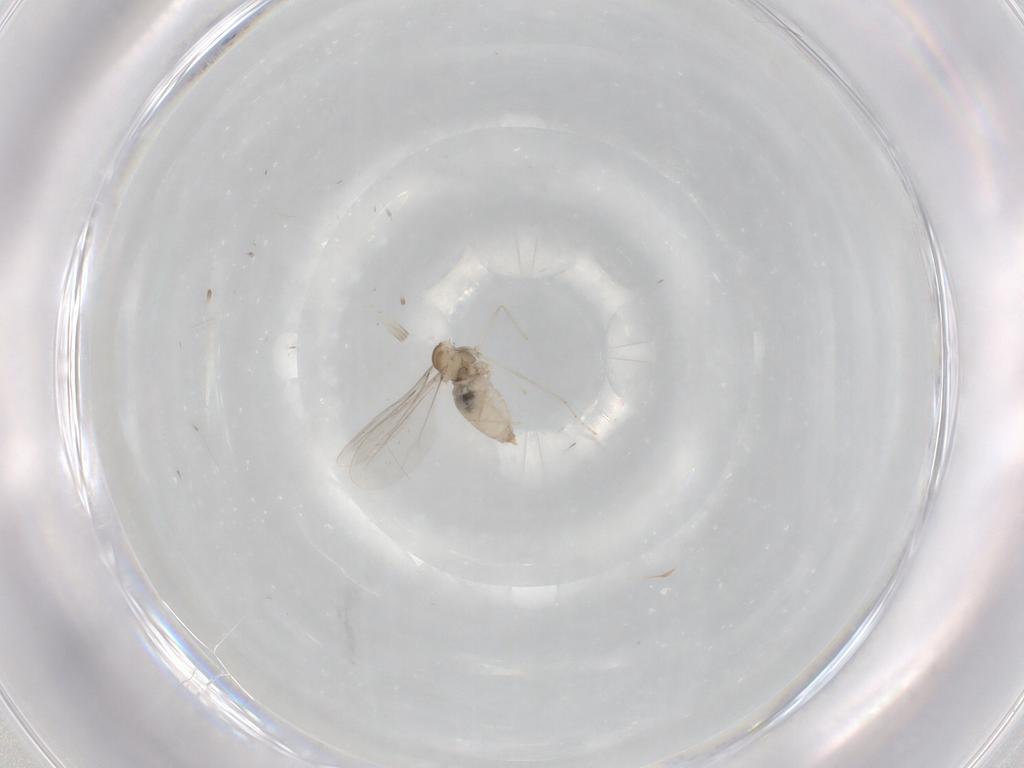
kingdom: Animalia
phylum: Arthropoda
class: Insecta
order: Diptera
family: Cecidomyiidae
